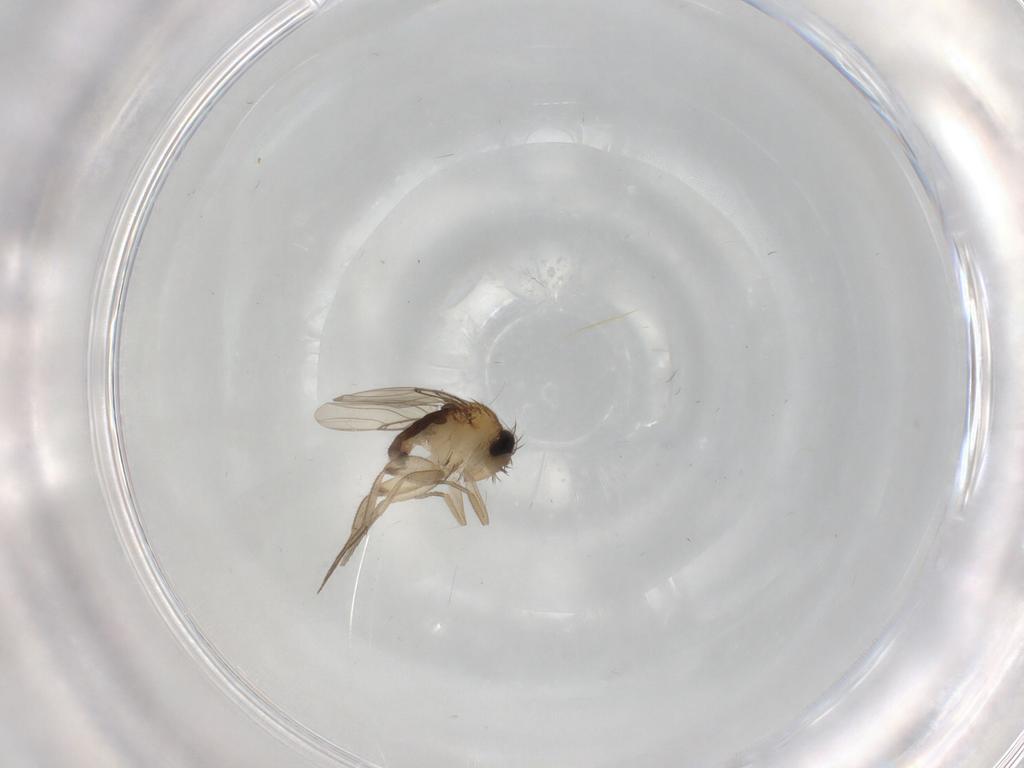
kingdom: Animalia
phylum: Arthropoda
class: Insecta
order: Diptera
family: Phoridae
